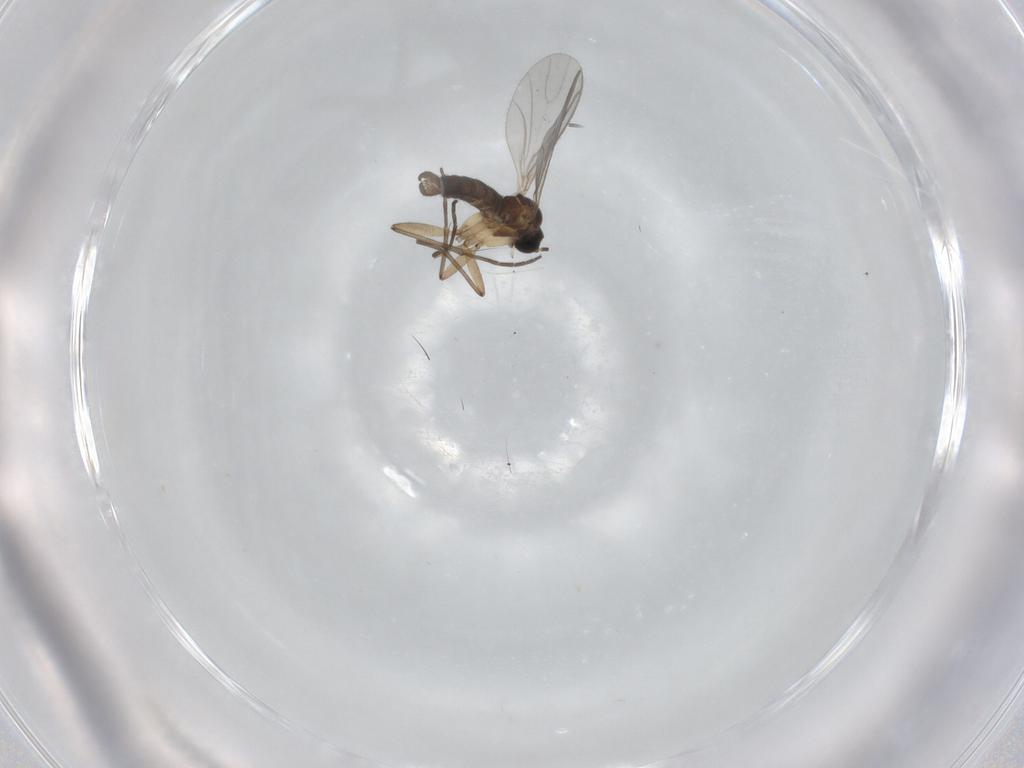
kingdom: Animalia
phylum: Arthropoda
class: Insecta
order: Diptera
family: Sciaridae
